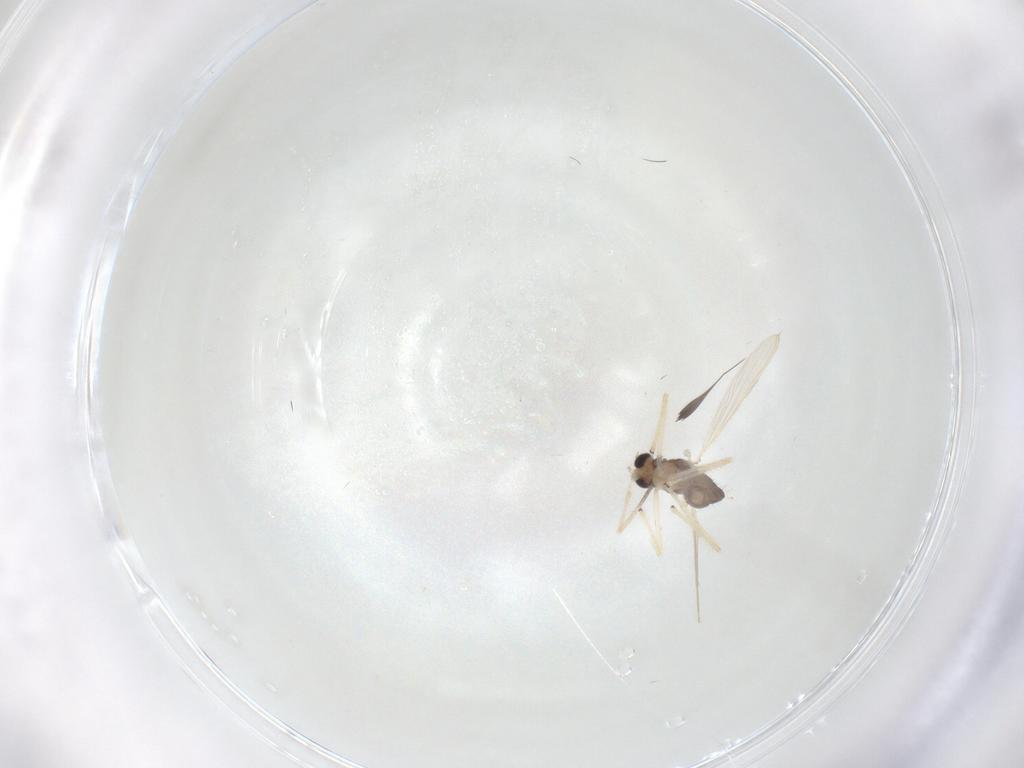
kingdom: Animalia
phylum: Arthropoda
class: Insecta
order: Diptera
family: Chironomidae
